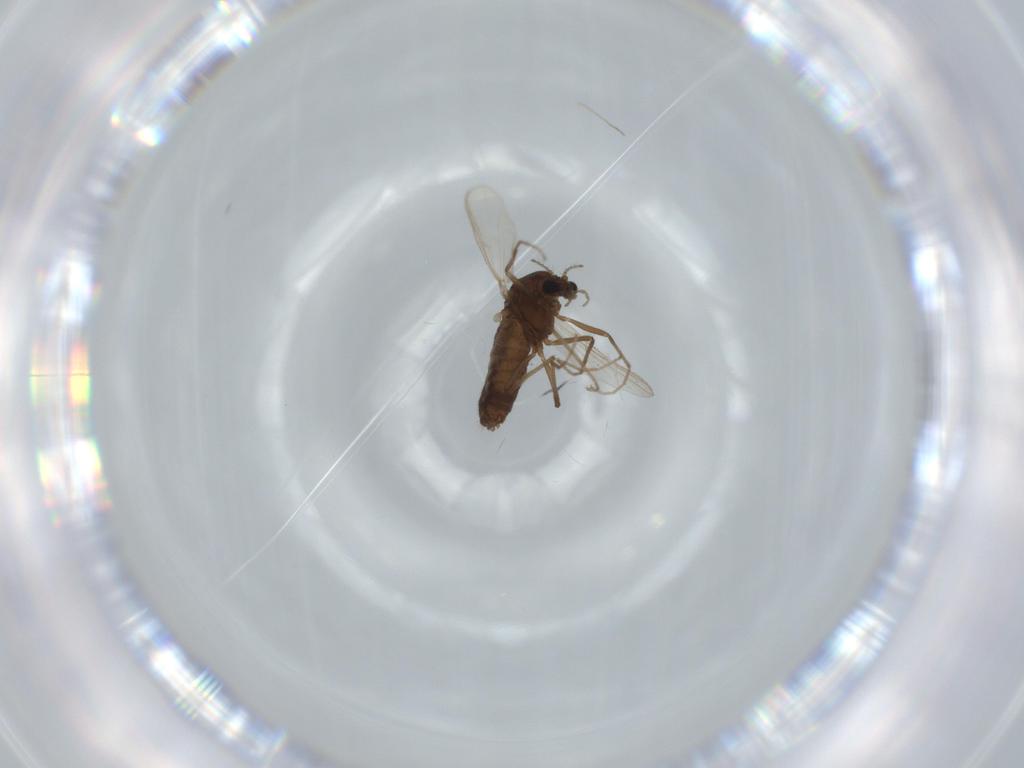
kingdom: Animalia
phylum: Arthropoda
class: Insecta
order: Diptera
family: Chironomidae
